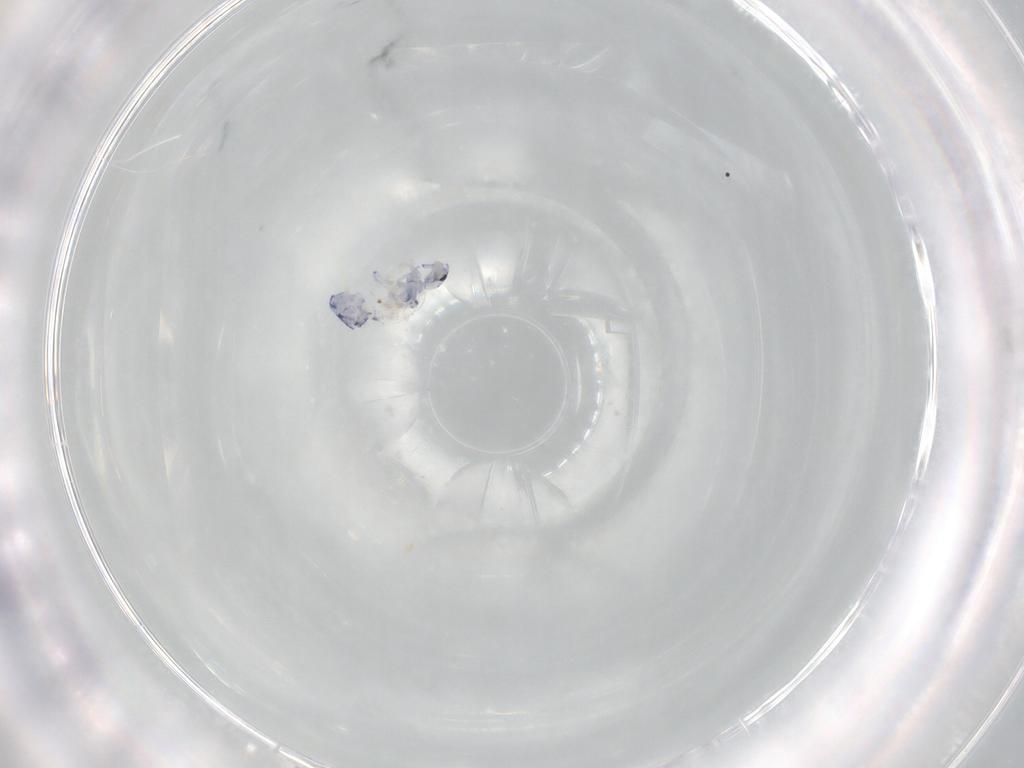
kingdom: Animalia
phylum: Arthropoda
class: Collembola
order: Entomobryomorpha
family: Entomobryidae
